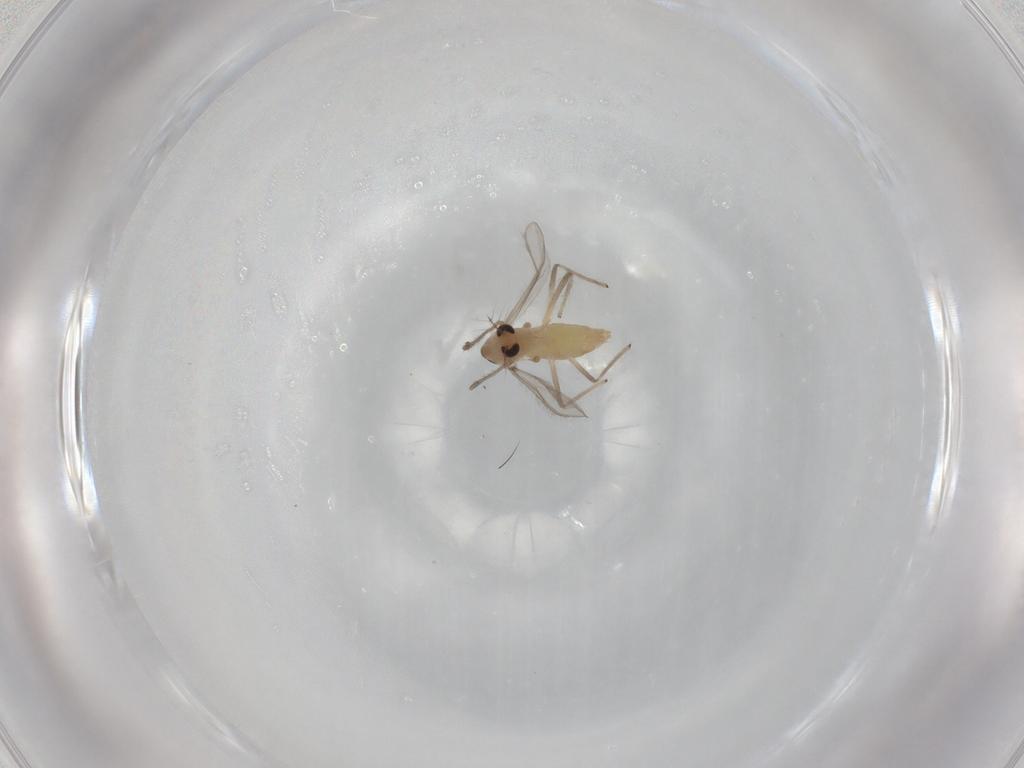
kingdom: Animalia
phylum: Arthropoda
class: Insecta
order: Diptera
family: Chironomidae
